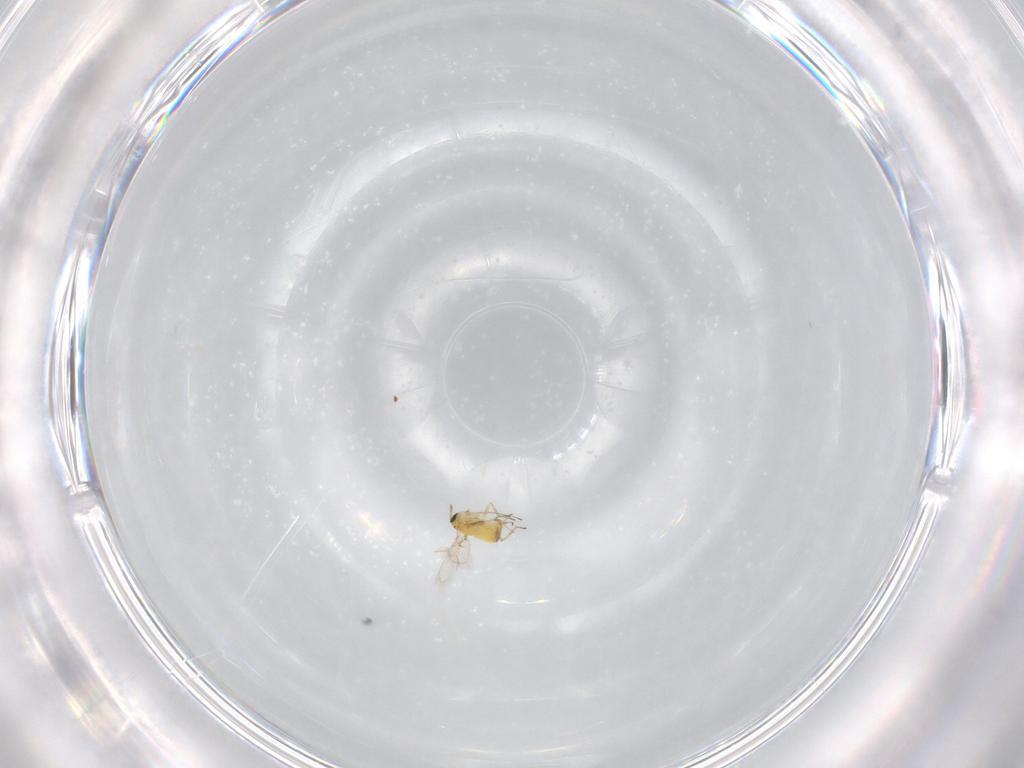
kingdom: Animalia
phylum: Arthropoda
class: Insecta
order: Hymenoptera
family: Trichogrammatidae
